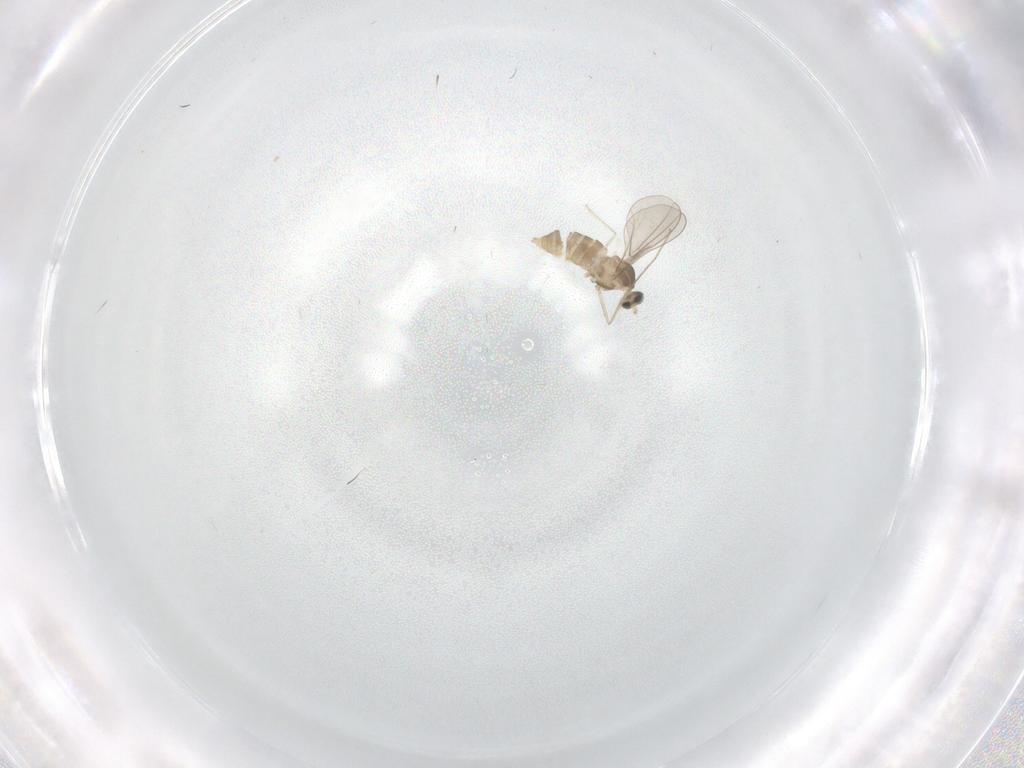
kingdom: Animalia
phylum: Arthropoda
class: Insecta
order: Diptera
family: Cecidomyiidae
